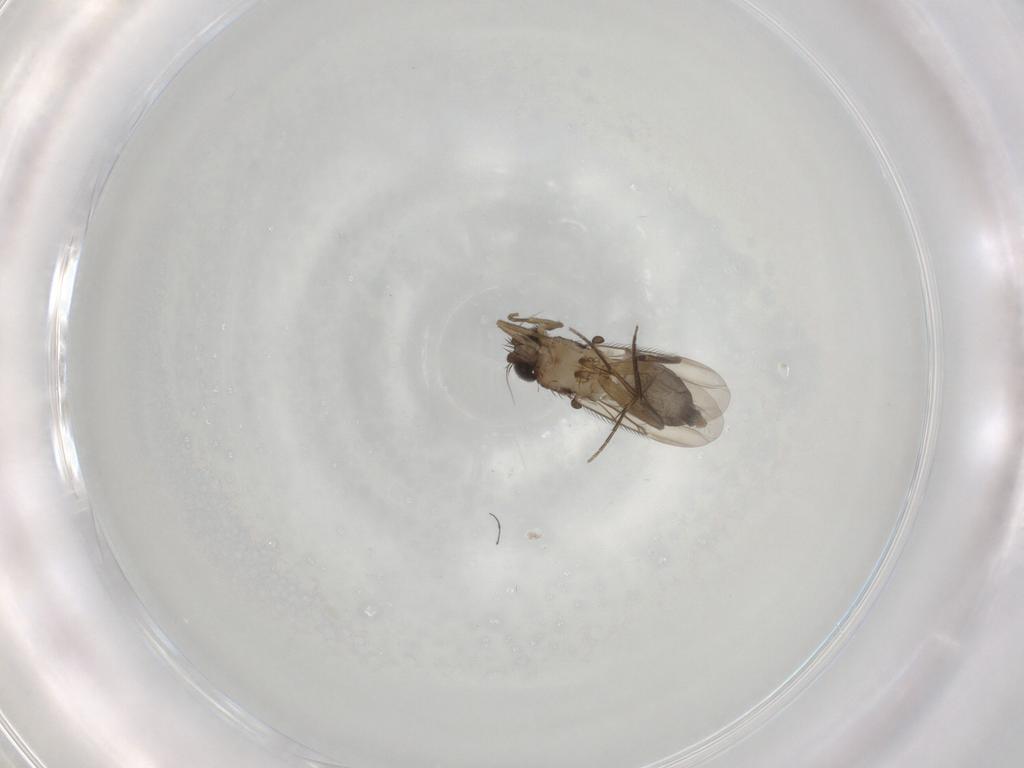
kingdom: Animalia
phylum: Arthropoda
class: Insecta
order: Diptera
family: Phoridae
